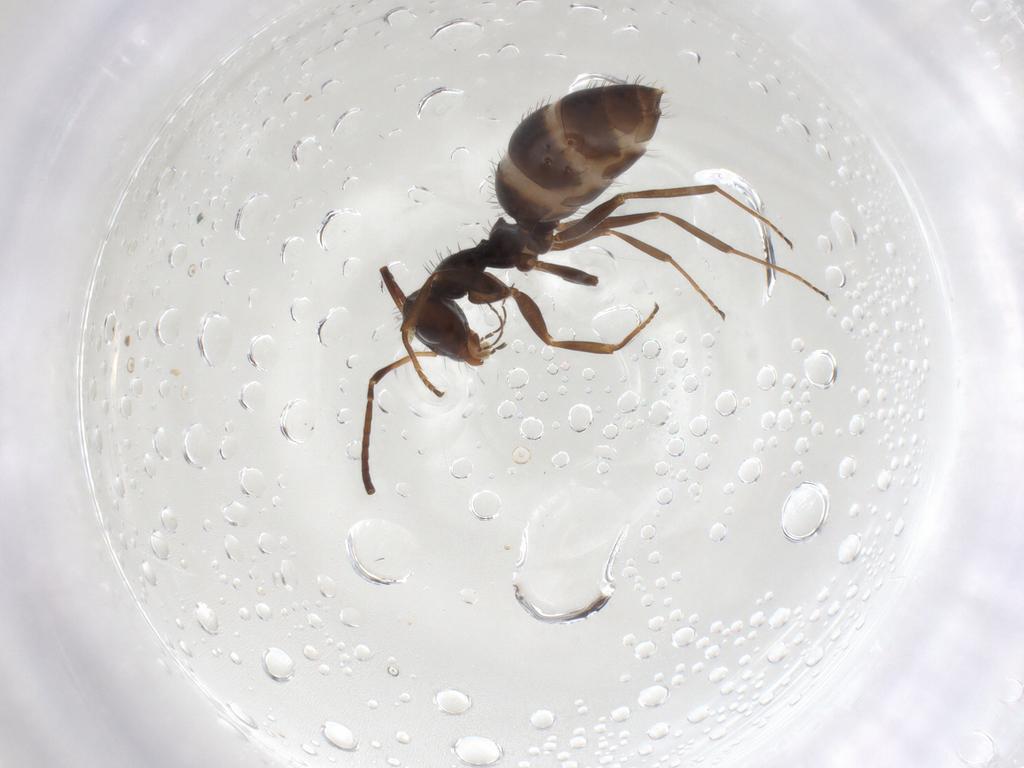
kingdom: Animalia
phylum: Arthropoda
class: Insecta
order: Hymenoptera
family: Formicidae
